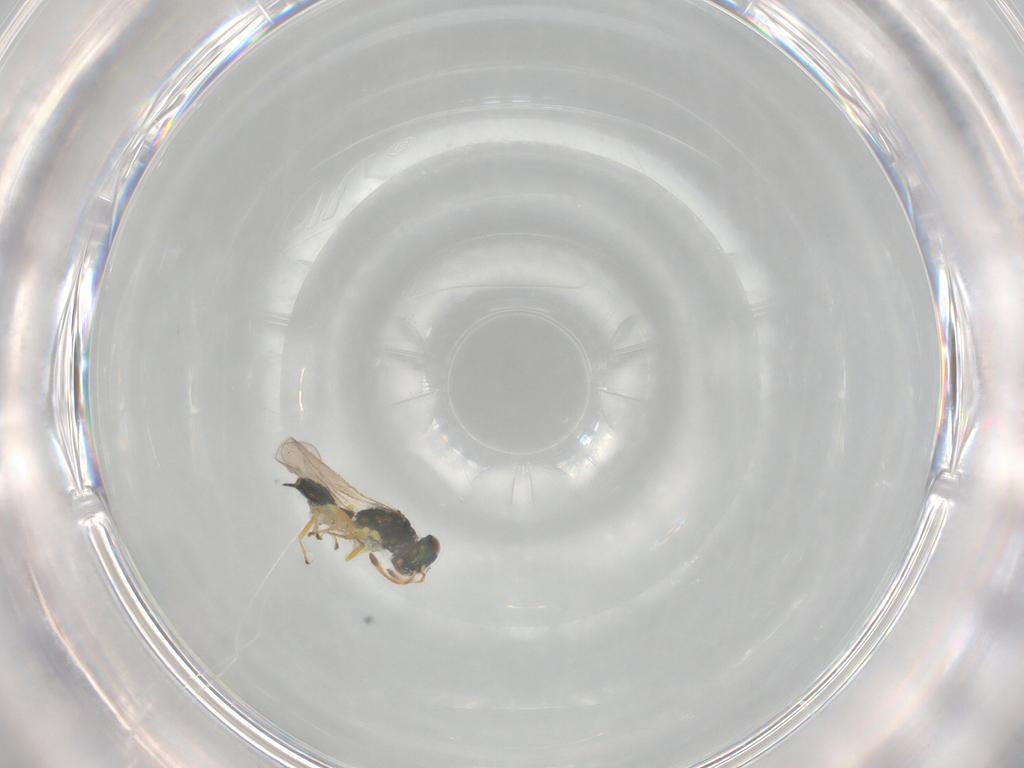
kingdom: Animalia
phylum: Arthropoda
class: Insecta
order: Hymenoptera
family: Pteromalidae
